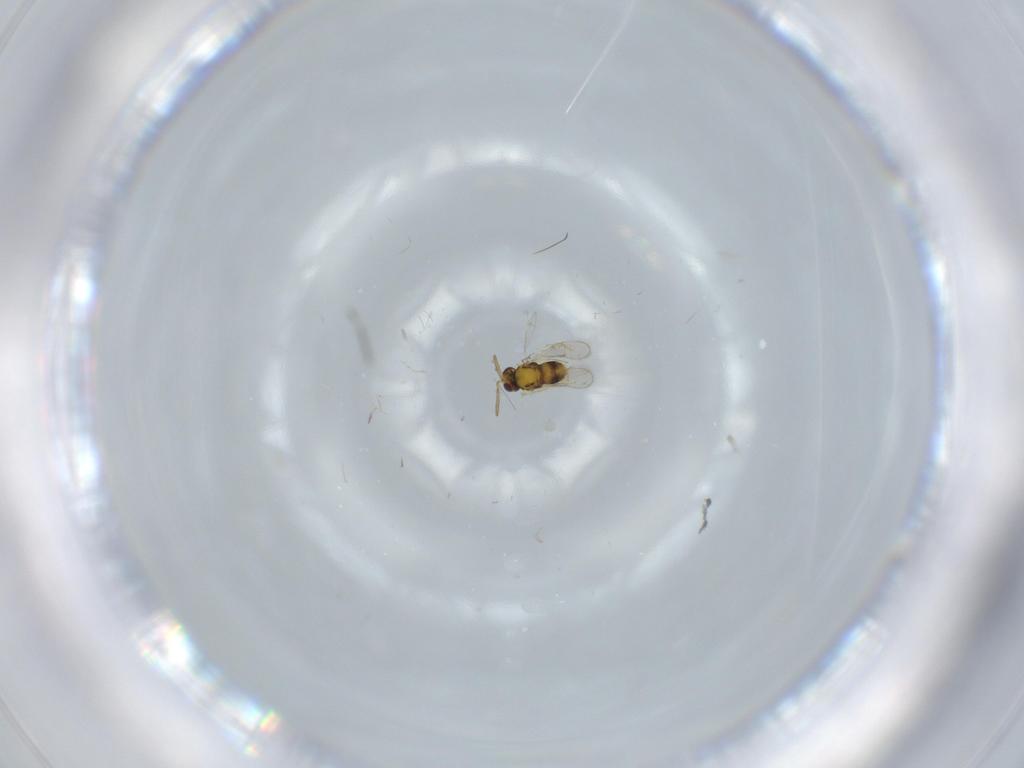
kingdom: Animalia
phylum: Arthropoda
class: Insecta
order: Hymenoptera
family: Aphelinidae
